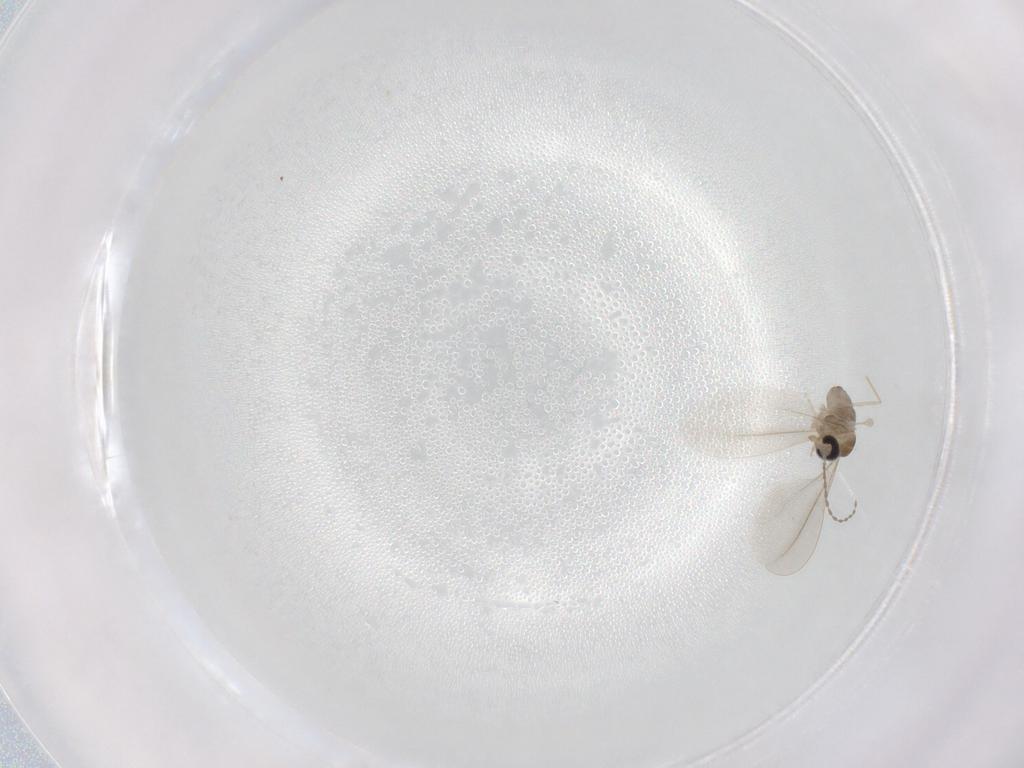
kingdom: Animalia
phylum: Arthropoda
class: Insecta
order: Diptera
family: Cecidomyiidae
